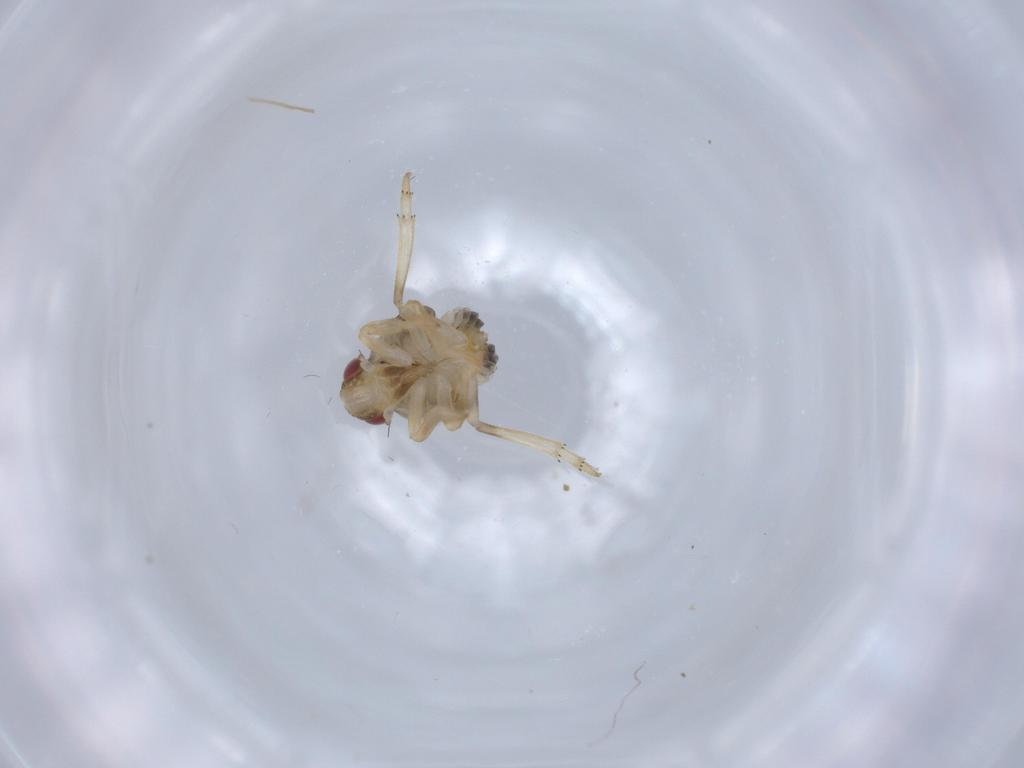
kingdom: Animalia
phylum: Arthropoda
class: Insecta
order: Hemiptera
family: Issidae
